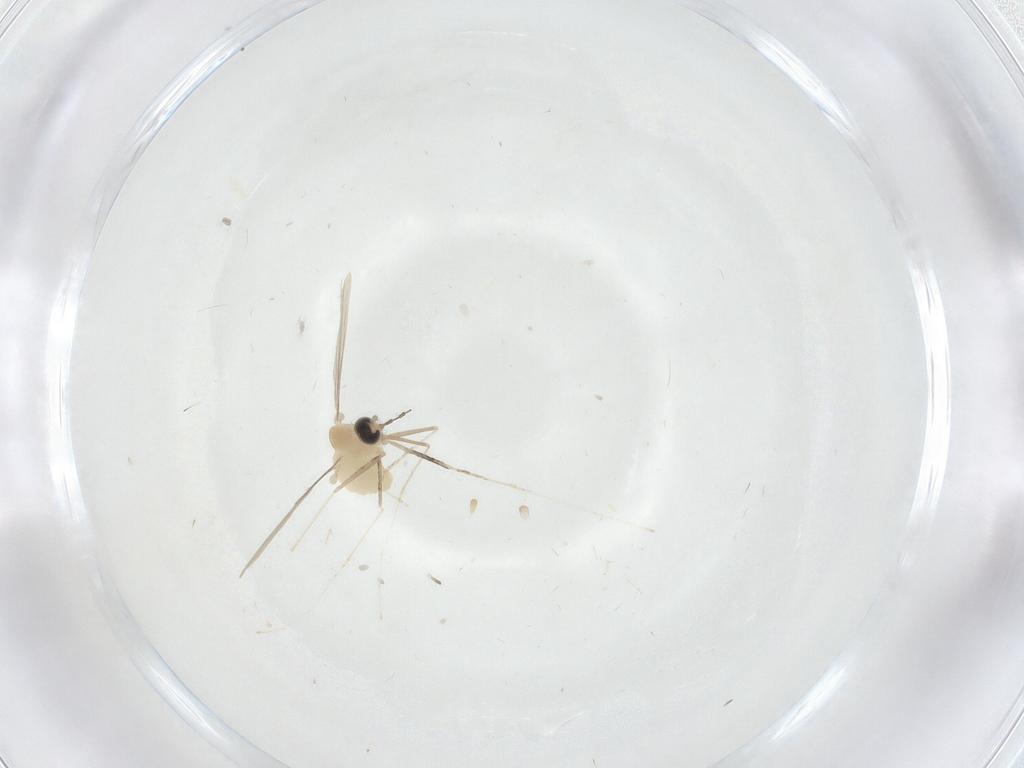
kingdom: Animalia
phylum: Arthropoda
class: Insecta
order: Diptera
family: Cecidomyiidae
